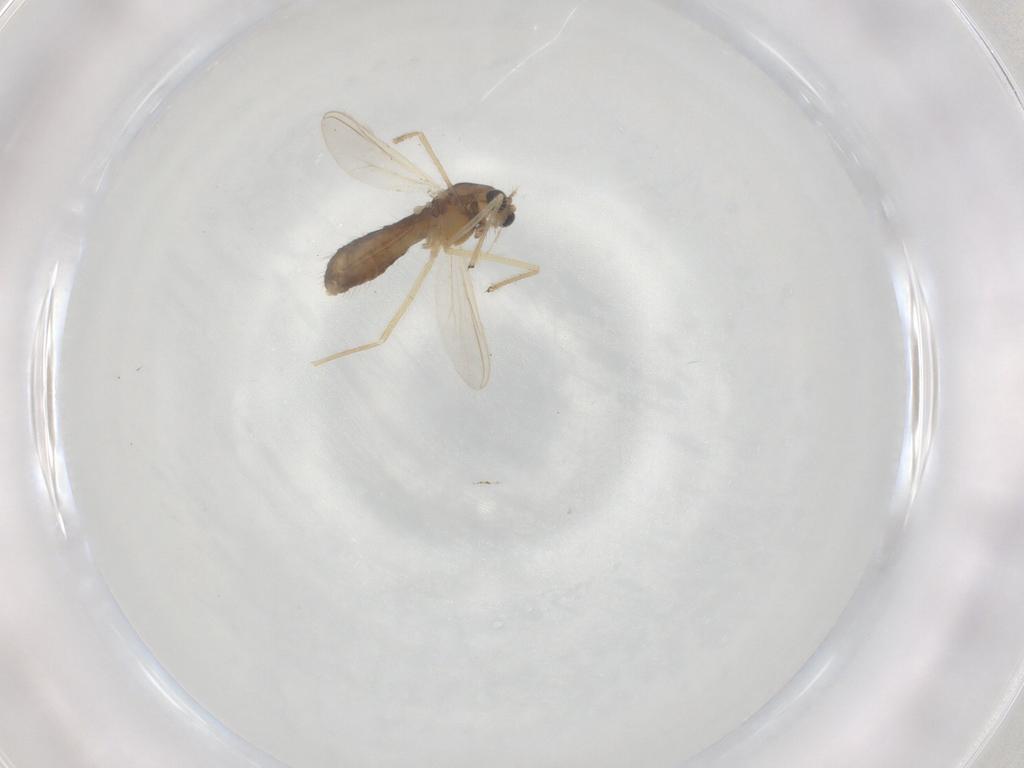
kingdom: Animalia
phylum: Arthropoda
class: Insecta
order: Diptera
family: Chironomidae
